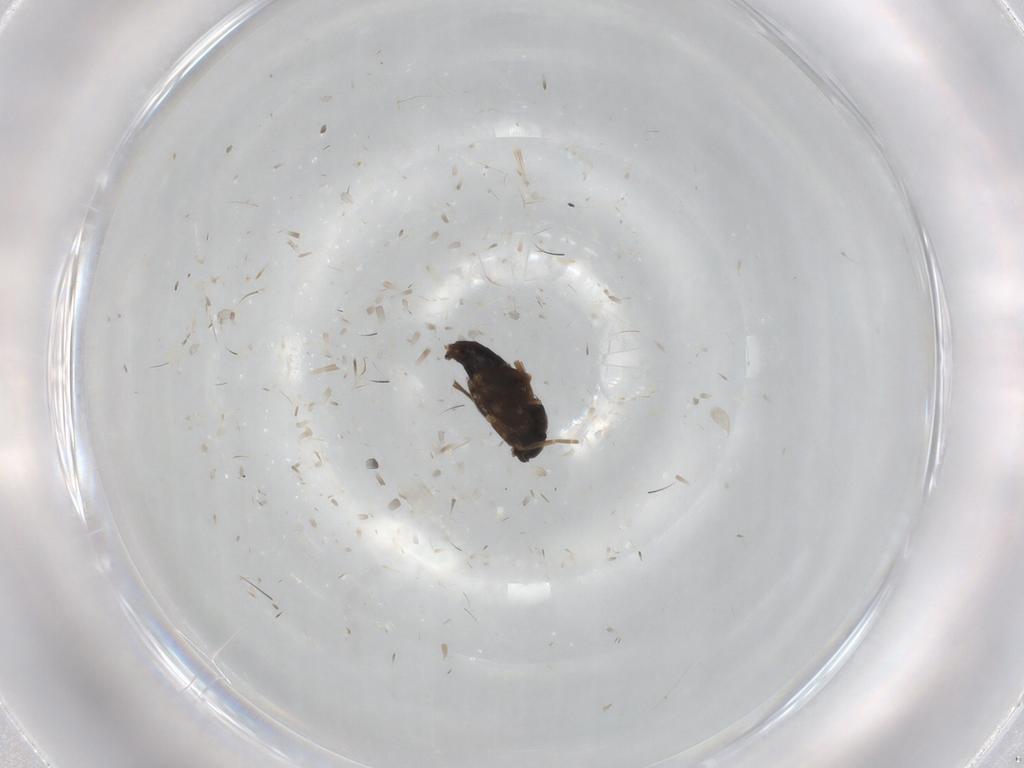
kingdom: Animalia
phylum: Arthropoda
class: Insecta
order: Diptera
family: Phoridae
